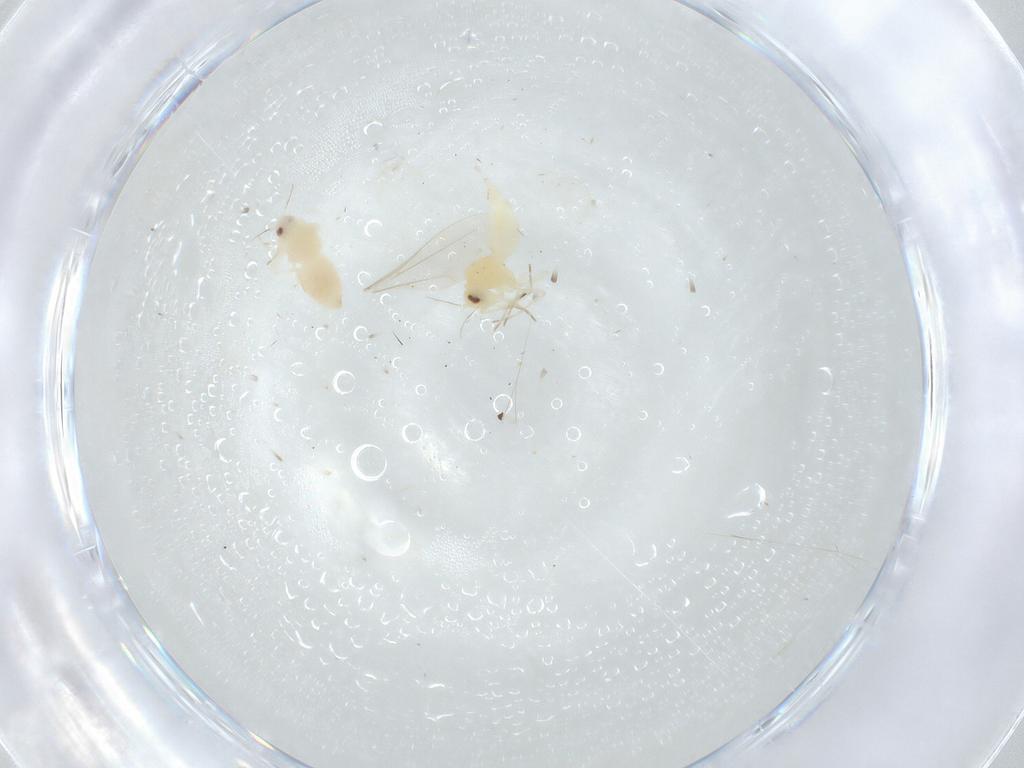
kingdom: Animalia
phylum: Arthropoda
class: Insecta
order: Hemiptera
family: Aleyrodidae
